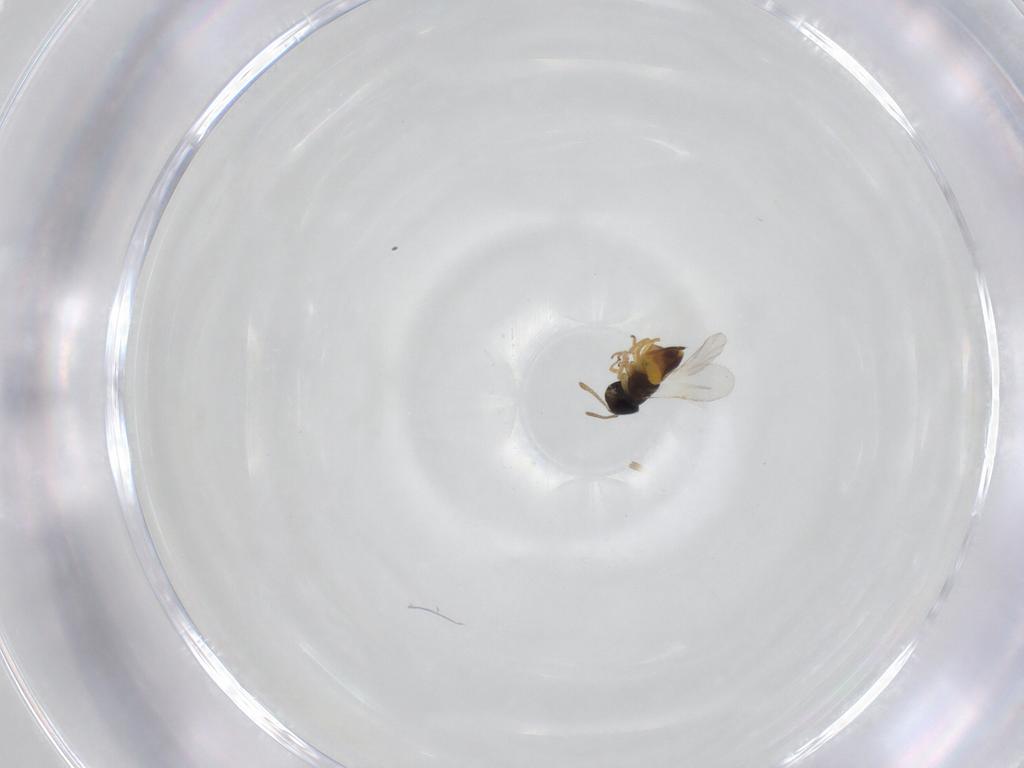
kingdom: Animalia
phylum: Arthropoda
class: Insecta
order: Hymenoptera
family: Encyrtidae
